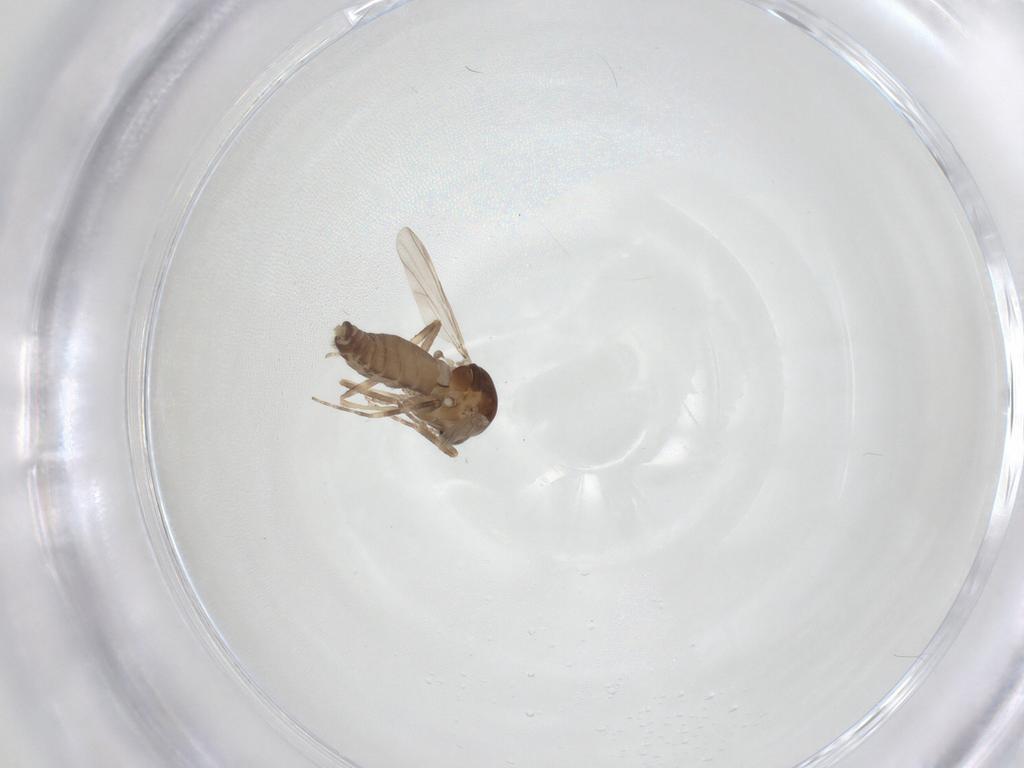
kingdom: Animalia
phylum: Arthropoda
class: Insecta
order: Diptera
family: Ceratopogonidae
